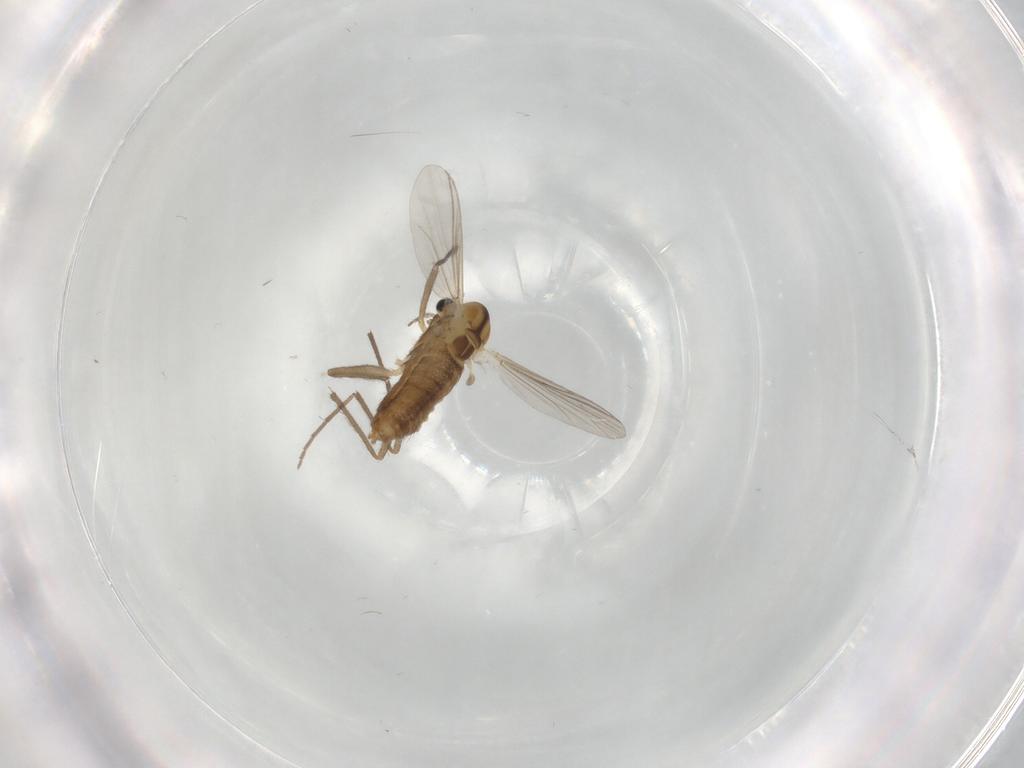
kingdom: Animalia
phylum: Arthropoda
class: Insecta
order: Diptera
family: Chironomidae
